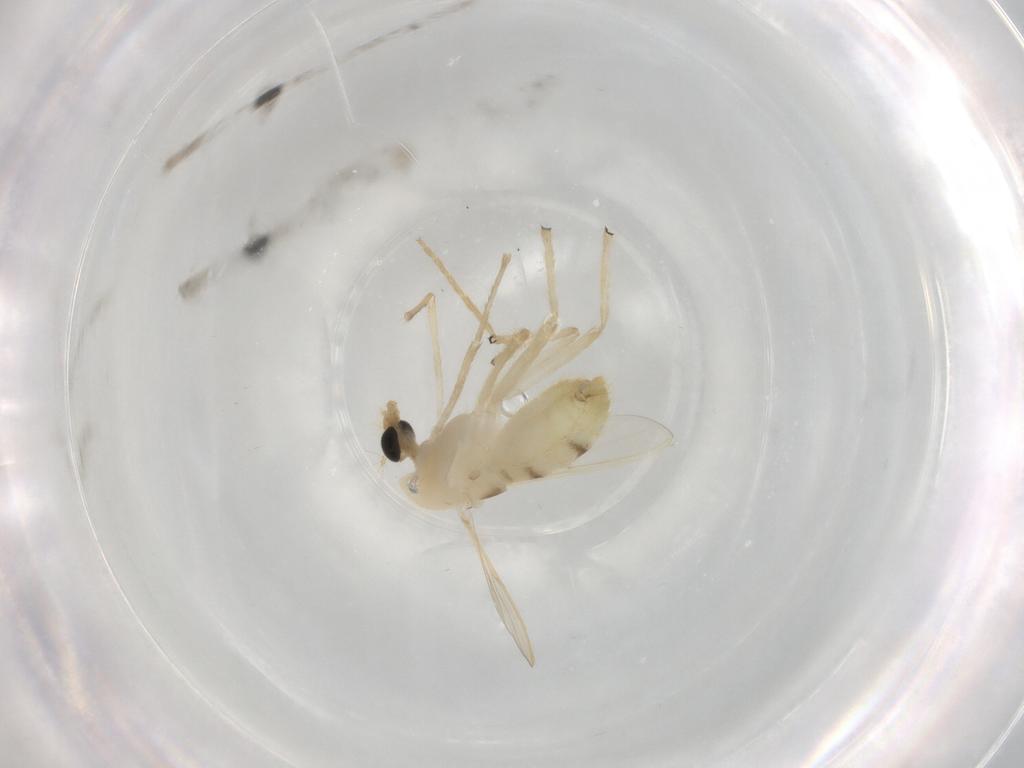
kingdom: Animalia
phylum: Arthropoda
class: Insecta
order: Diptera
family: Chironomidae
